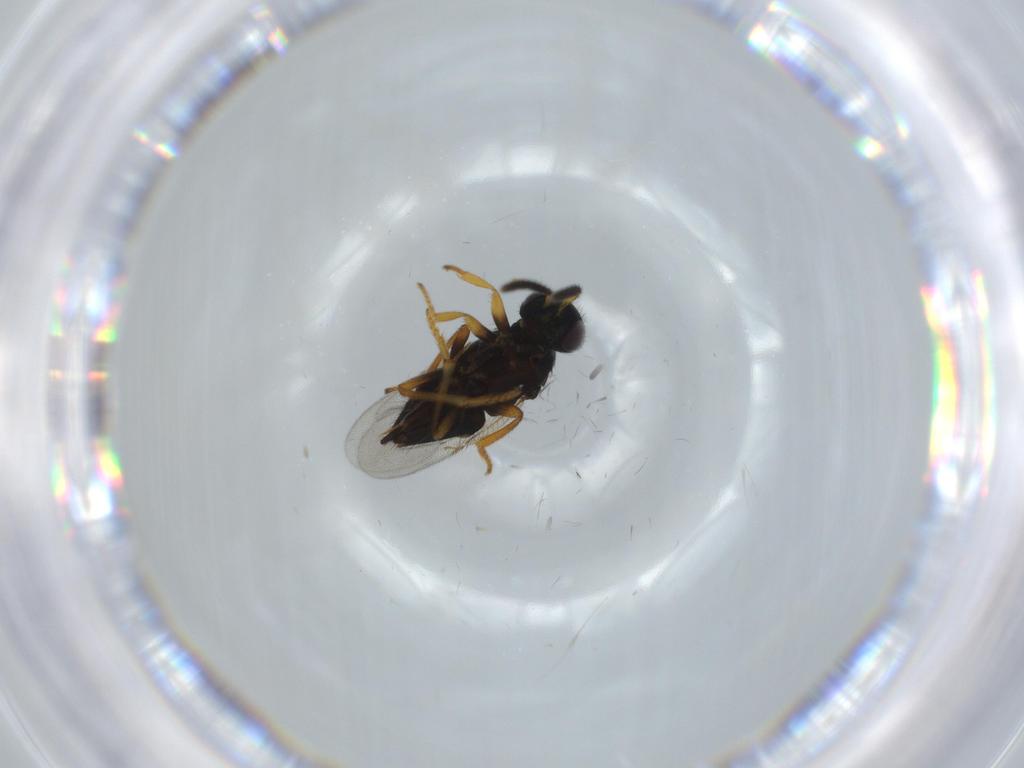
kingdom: Animalia
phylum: Arthropoda
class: Insecta
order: Hymenoptera
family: Encyrtidae
